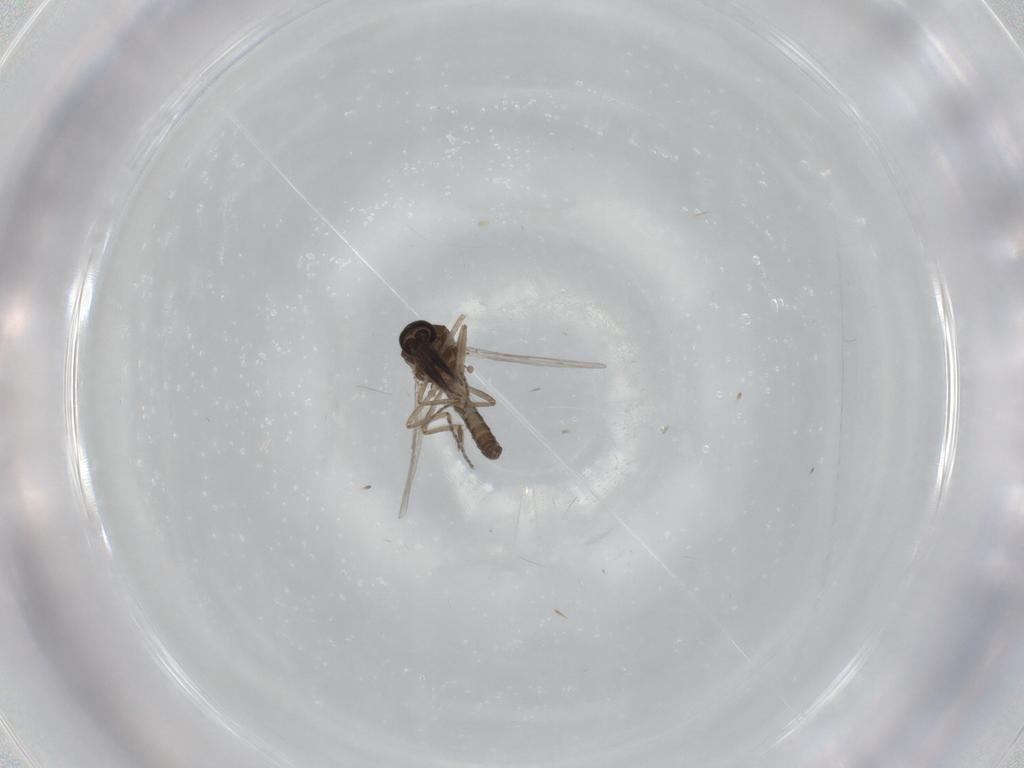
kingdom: Animalia
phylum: Arthropoda
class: Insecta
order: Diptera
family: Ceratopogonidae
